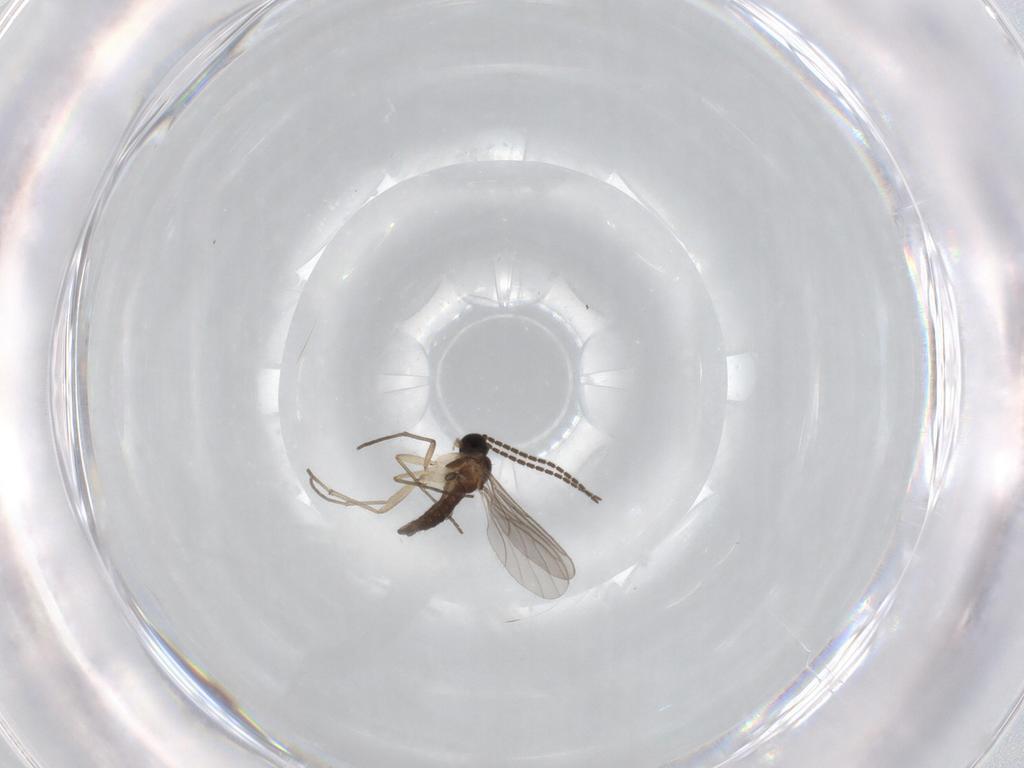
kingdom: Animalia
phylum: Arthropoda
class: Insecta
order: Diptera
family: Sciaridae
